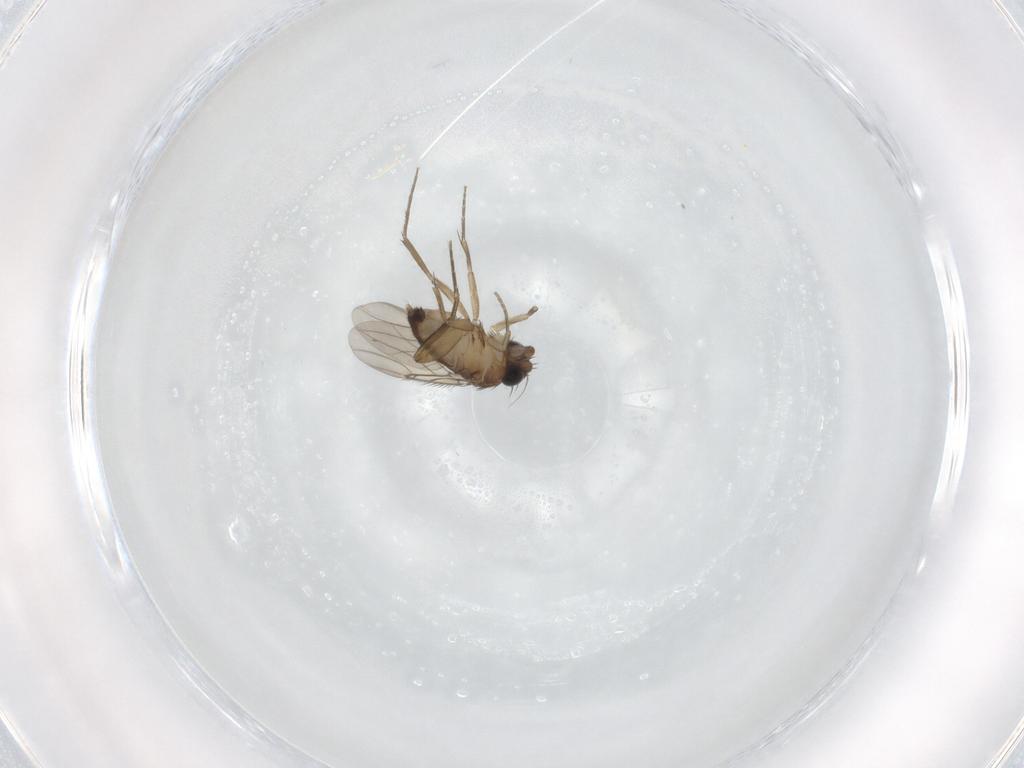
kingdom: Animalia
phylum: Arthropoda
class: Insecta
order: Diptera
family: Phoridae
